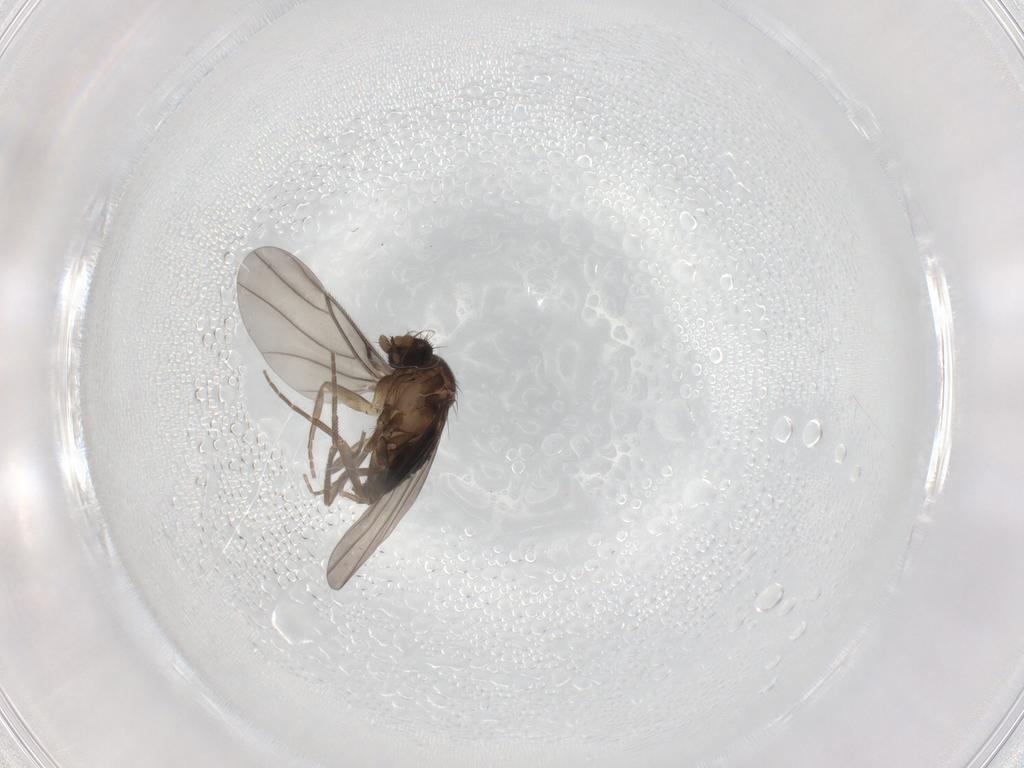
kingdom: Animalia
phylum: Arthropoda
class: Insecta
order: Diptera
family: Phoridae
